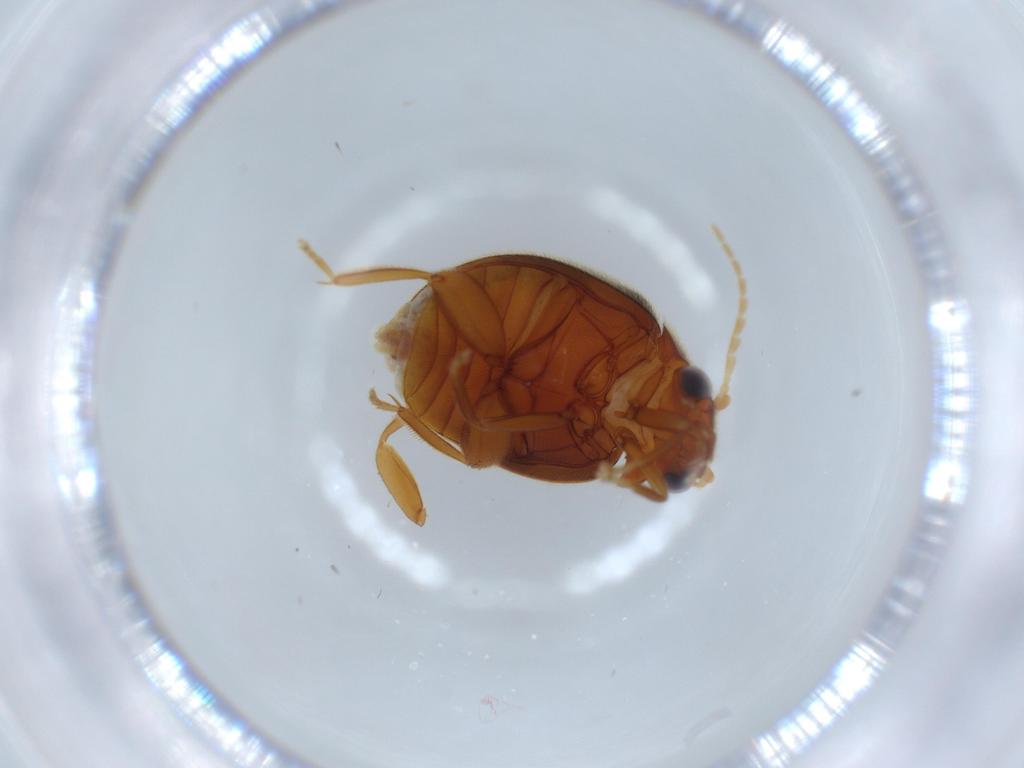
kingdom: Animalia
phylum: Arthropoda
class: Insecta
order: Coleoptera
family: Scirtidae
